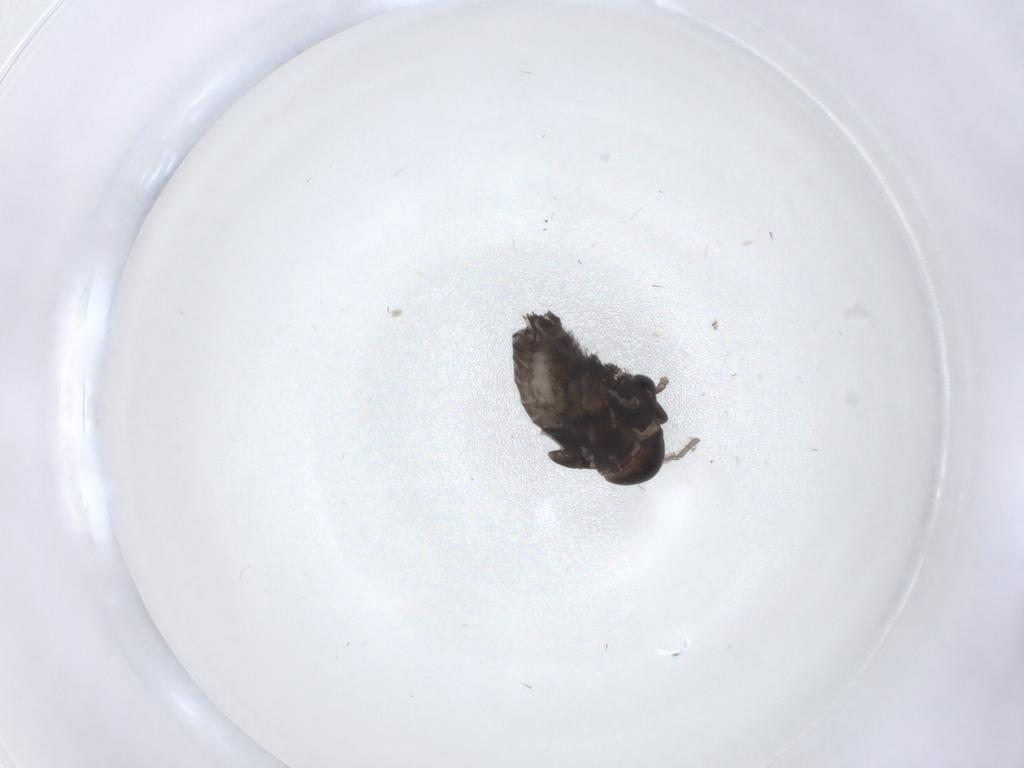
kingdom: Animalia
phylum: Arthropoda
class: Insecta
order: Diptera
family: Psychodidae
